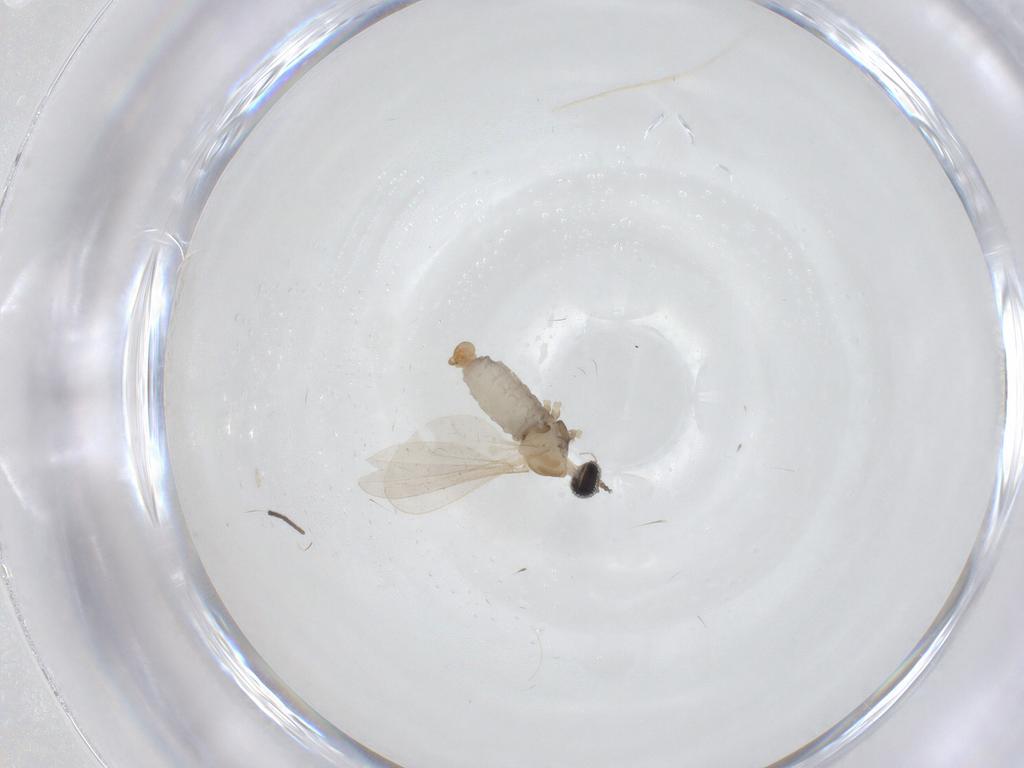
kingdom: Animalia
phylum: Arthropoda
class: Insecta
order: Diptera
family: Cecidomyiidae
